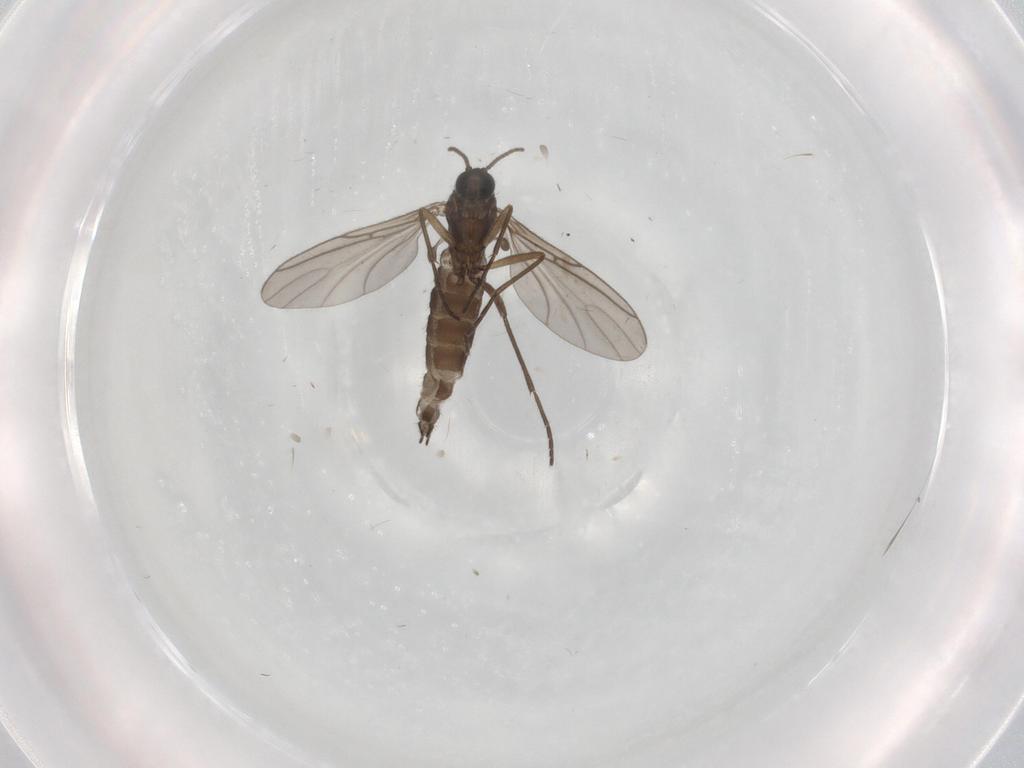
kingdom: Animalia
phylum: Arthropoda
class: Insecta
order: Diptera
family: Sciaridae
